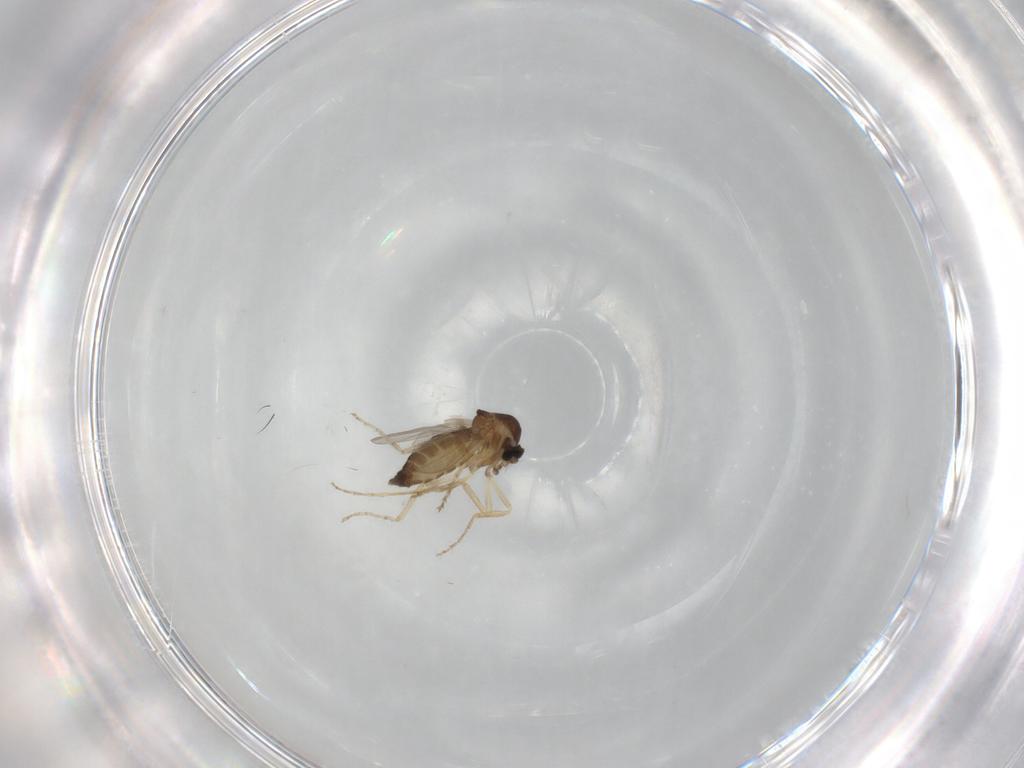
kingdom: Animalia
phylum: Arthropoda
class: Insecta
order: Diptera
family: Ceratopogonidae
